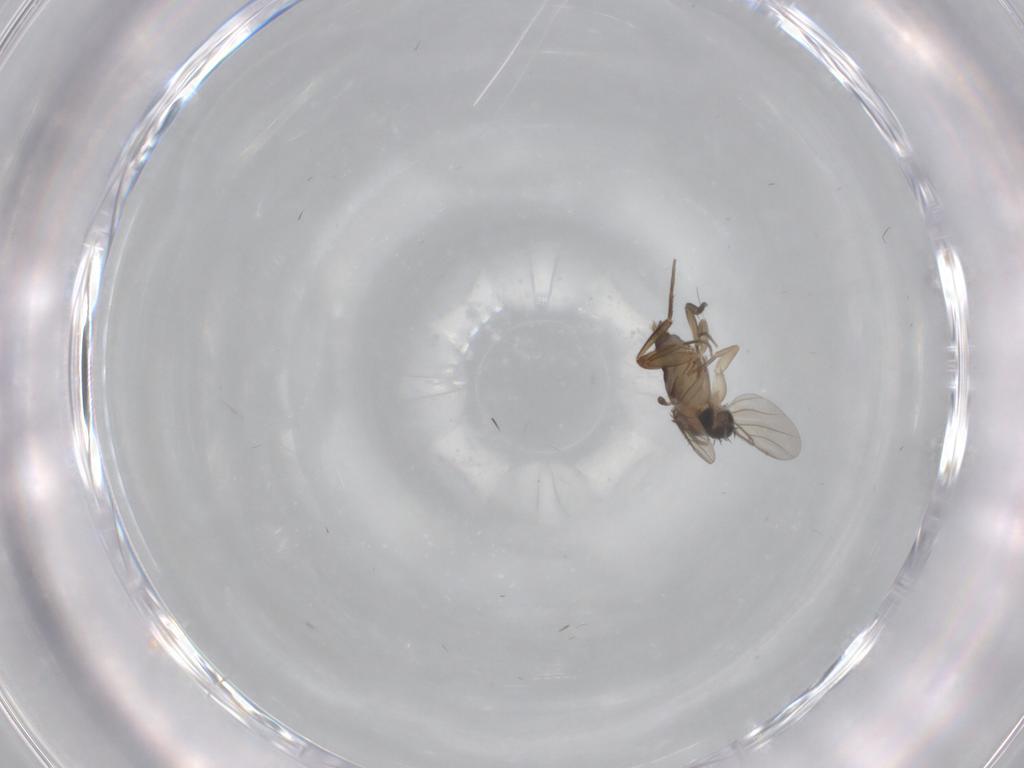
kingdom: Animalia
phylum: Arthropoda
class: Insecta
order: Diptera
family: Phoridae
